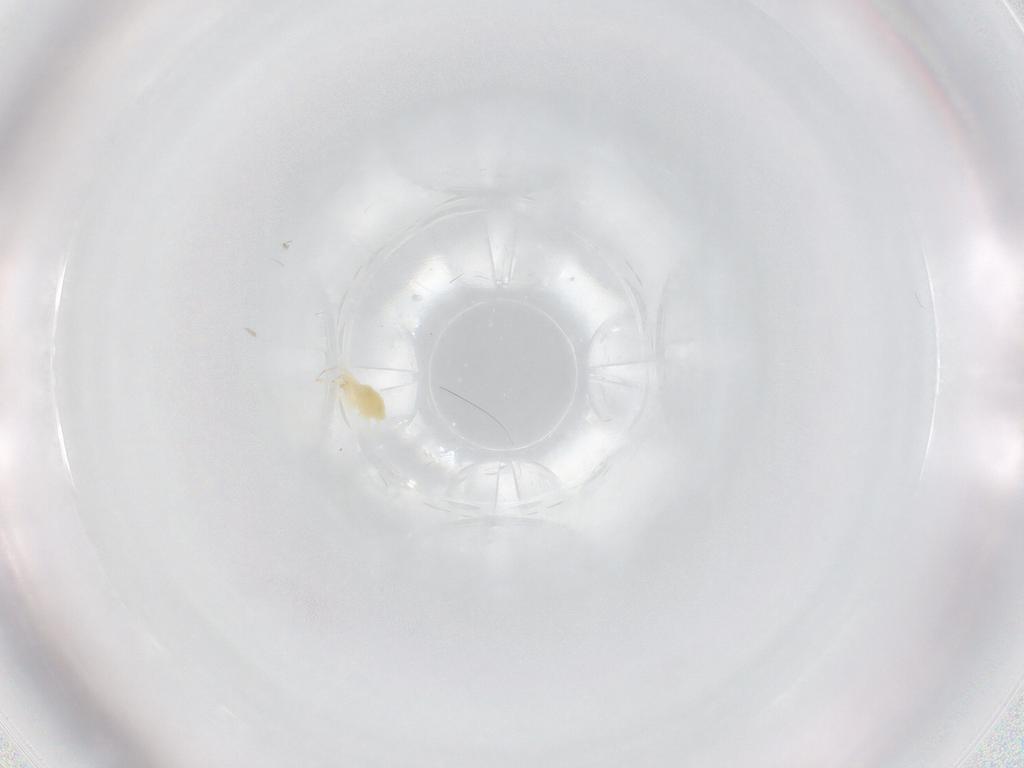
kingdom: Animalia
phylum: Arthropoda
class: Arachnida
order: Trombidiformes
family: Stigmaeidae
